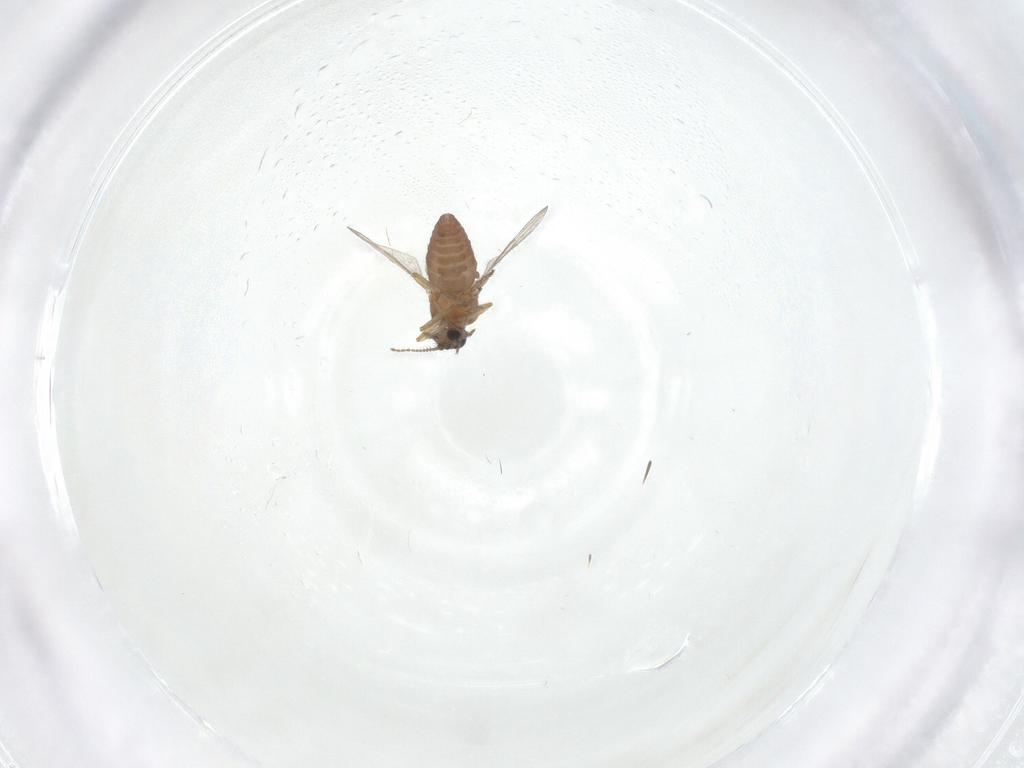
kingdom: Animalia
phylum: Arthropoda
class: Insecta
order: Diptera
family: Ceratopogonidae
